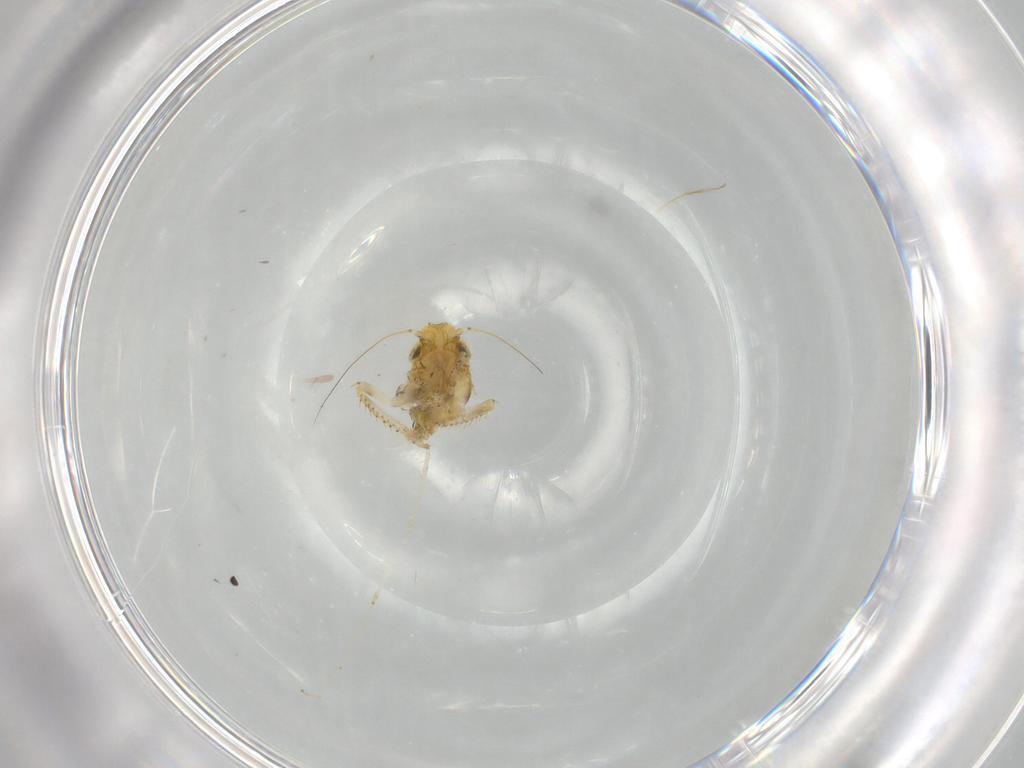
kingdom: Animalia
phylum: Arthropoda
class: Insecta
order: Hemiptera
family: Cicadellidae
